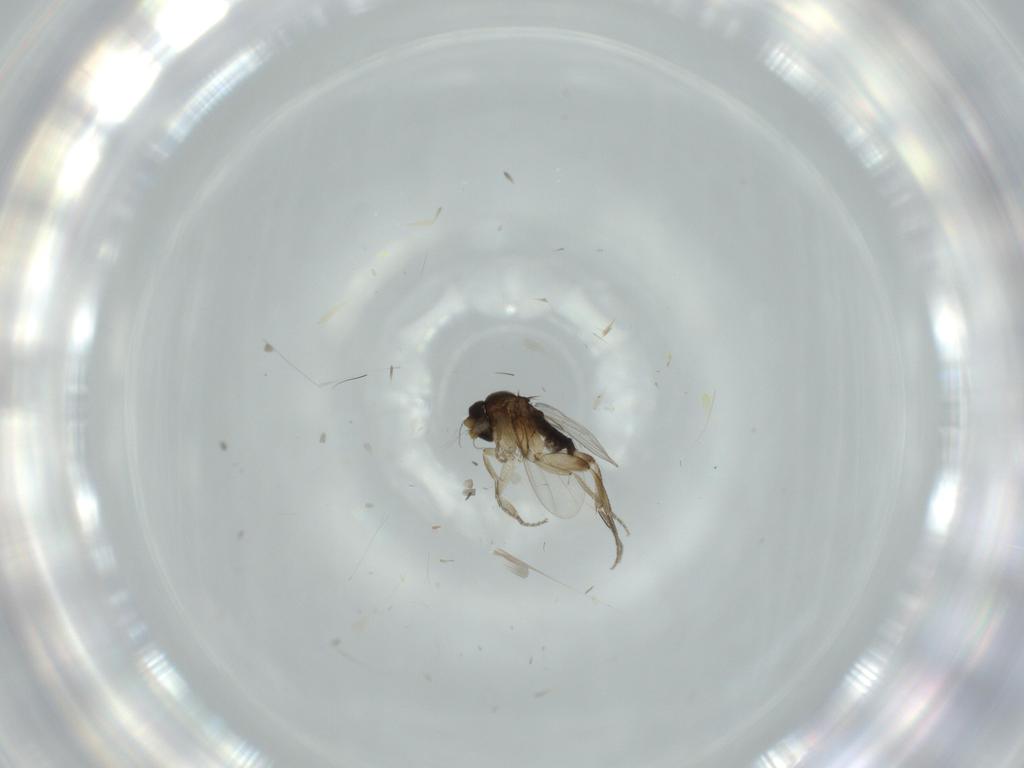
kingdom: Animalia
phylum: Arthropoda
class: Insecta
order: Diptera
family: Phoridae
